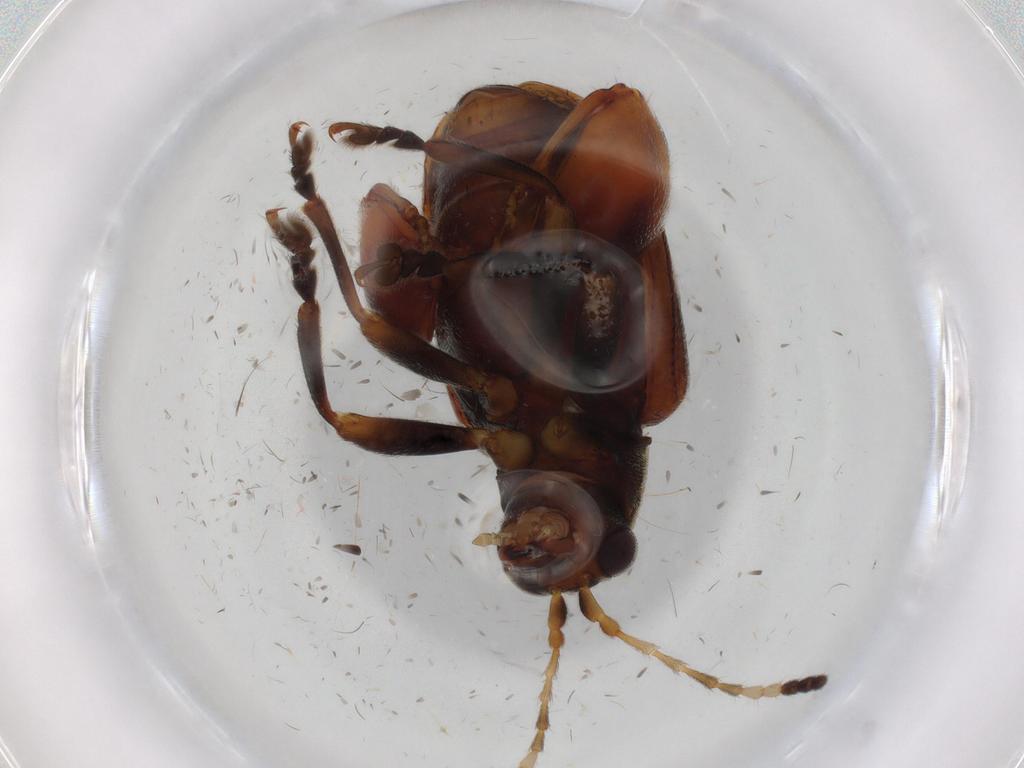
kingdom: Animalia
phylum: Arthropoda
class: Insecta
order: Coleoptera
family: Chrysomelidae
